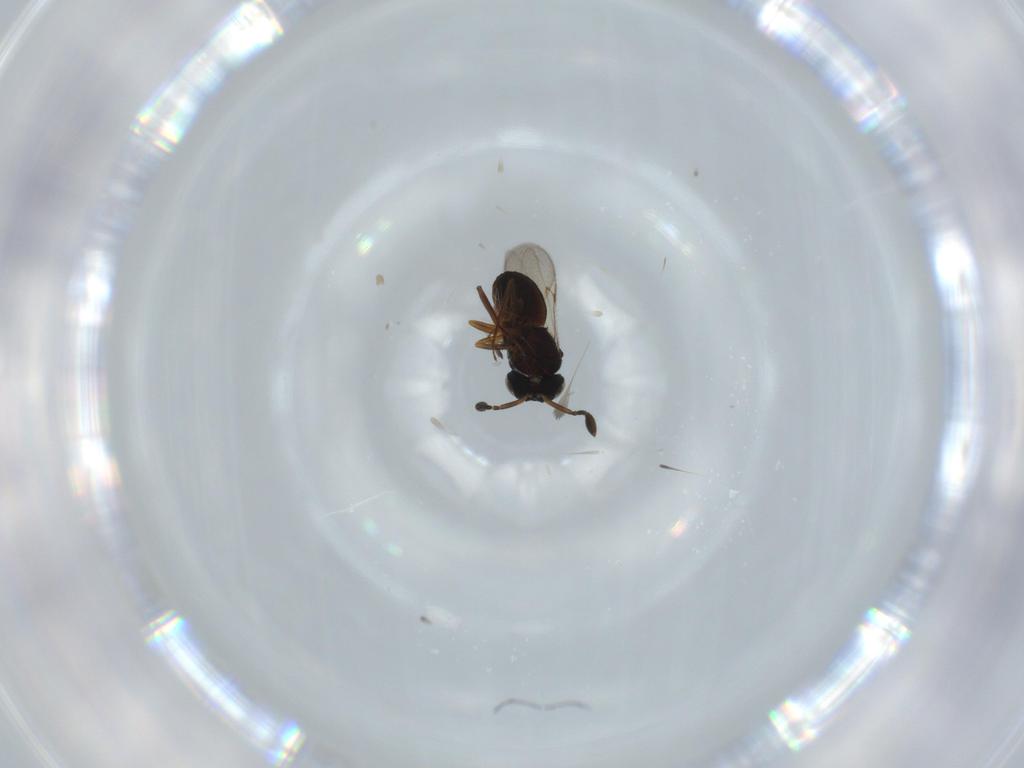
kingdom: Animalia
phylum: Arthropoda
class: Insecta
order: Coleoptera
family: Curculionidae
